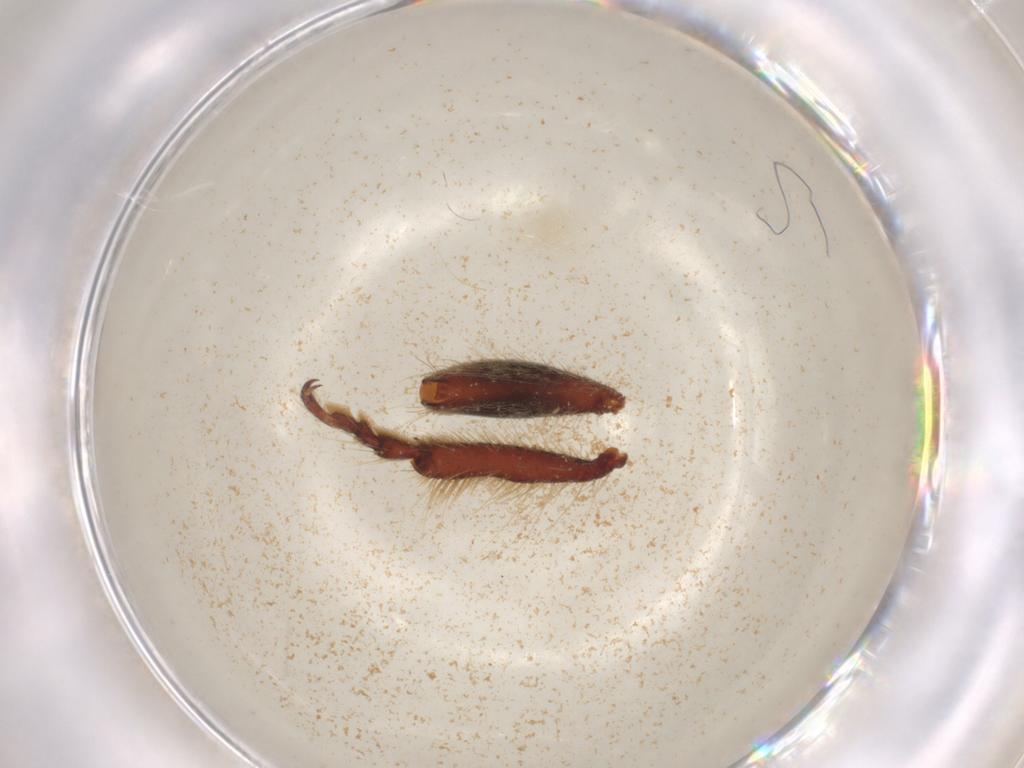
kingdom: Animalia
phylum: Arthropoda
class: Insecta
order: Coleoptera
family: Cerambycidae
